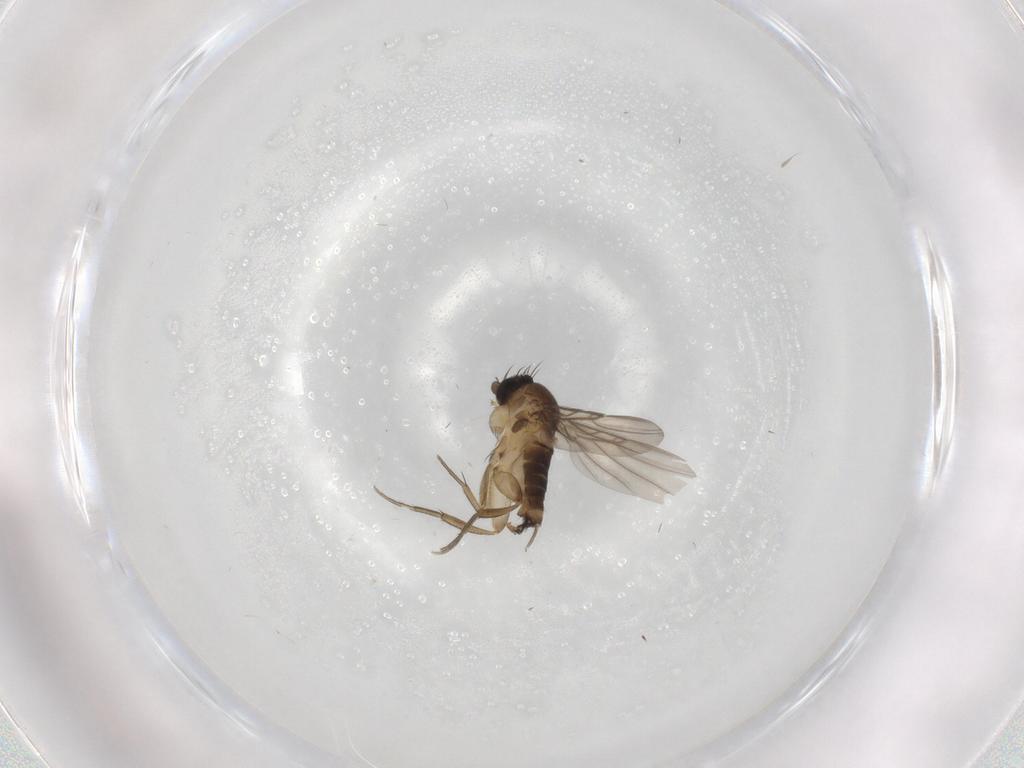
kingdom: Animalia
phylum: Arthropoda
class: Insecta
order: Diptera
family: Phoridae
